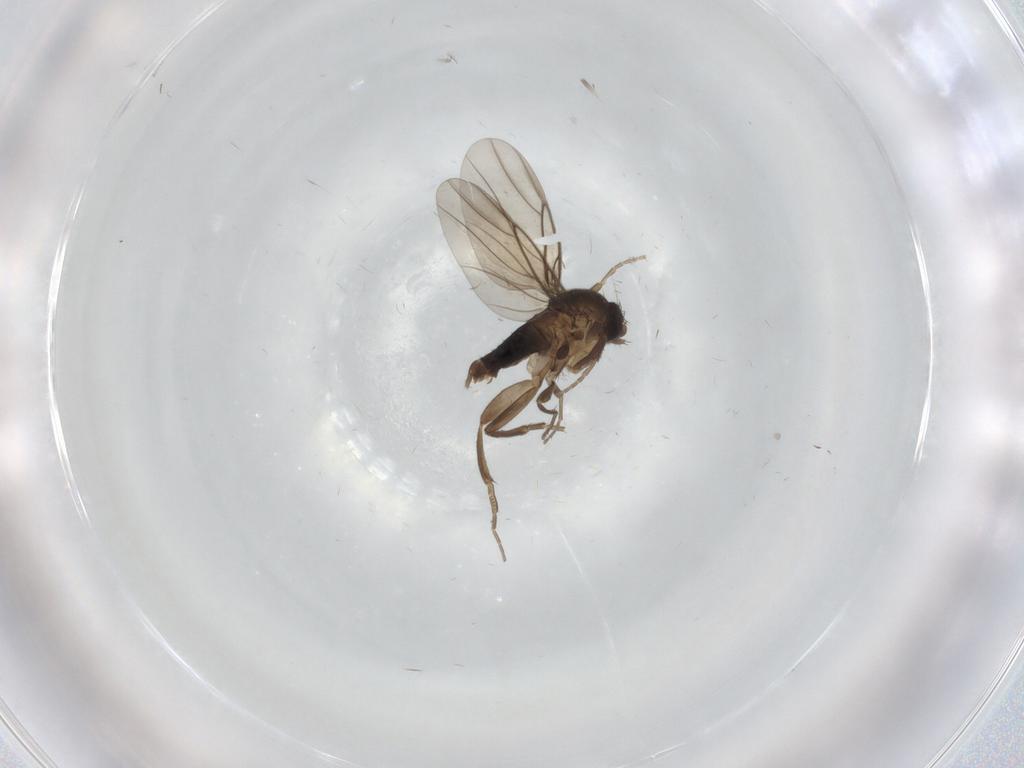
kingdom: Animalia
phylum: Arthropoda
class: Insecta
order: Diptera
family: Phoridae
